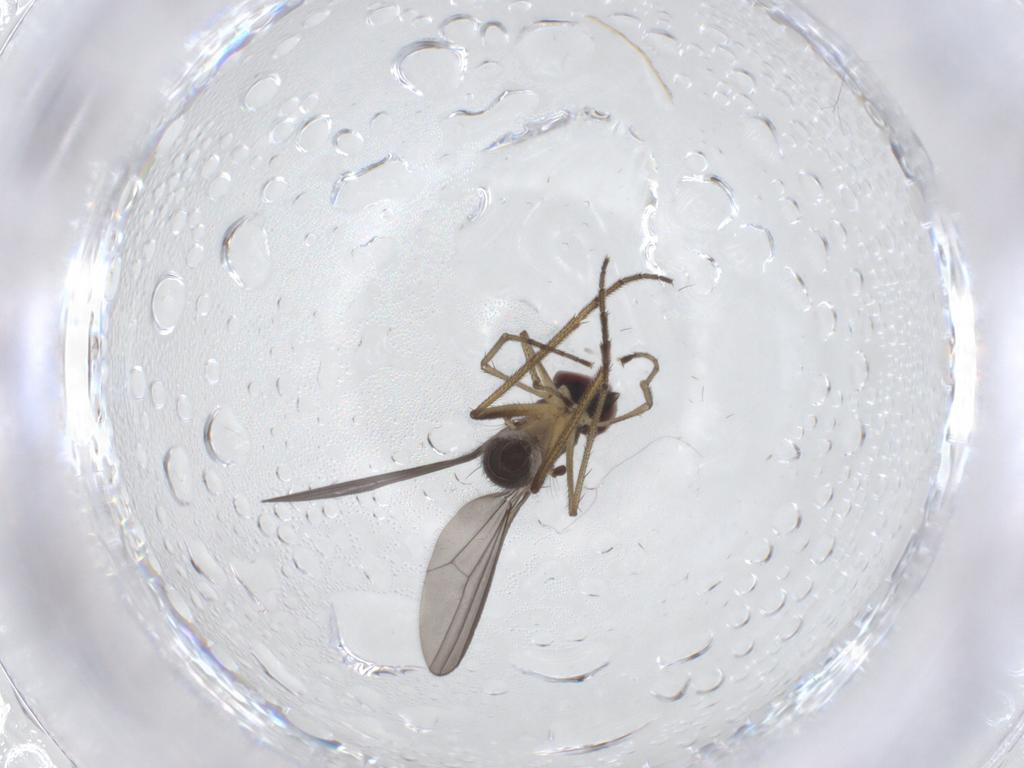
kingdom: Animalia
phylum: Arthropoda
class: Insecta
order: Diptera
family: Dolichopodidae
